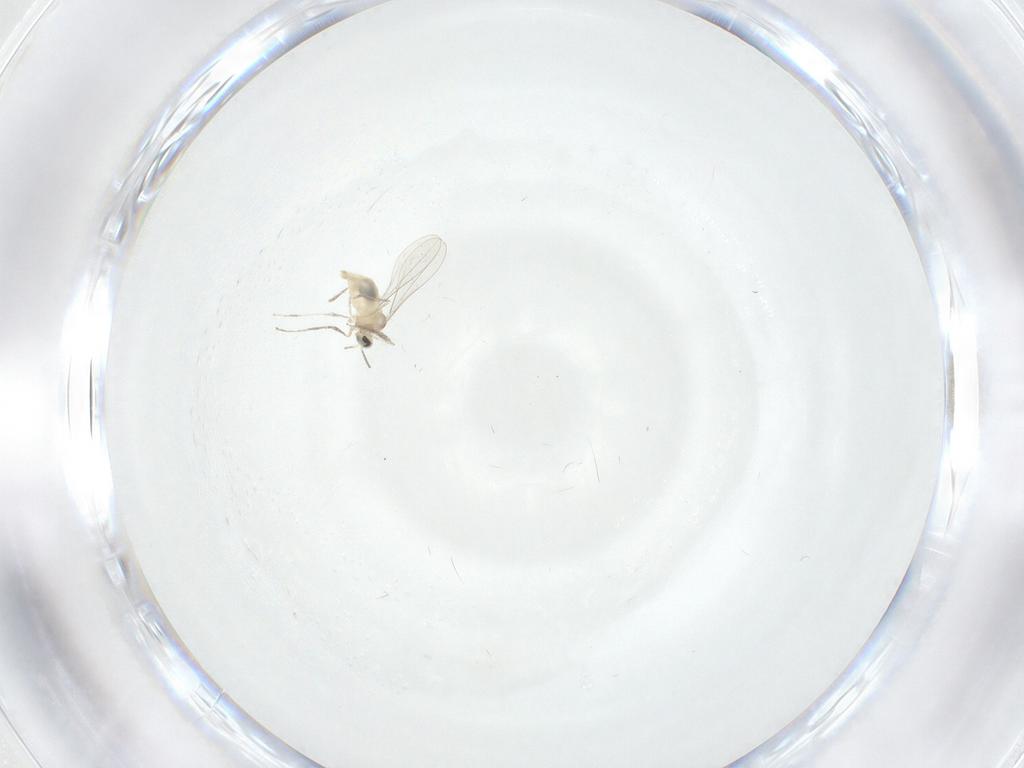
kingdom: Animalia
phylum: Arthropoda
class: Insecta
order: Diptera
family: Cecidomyiidae
